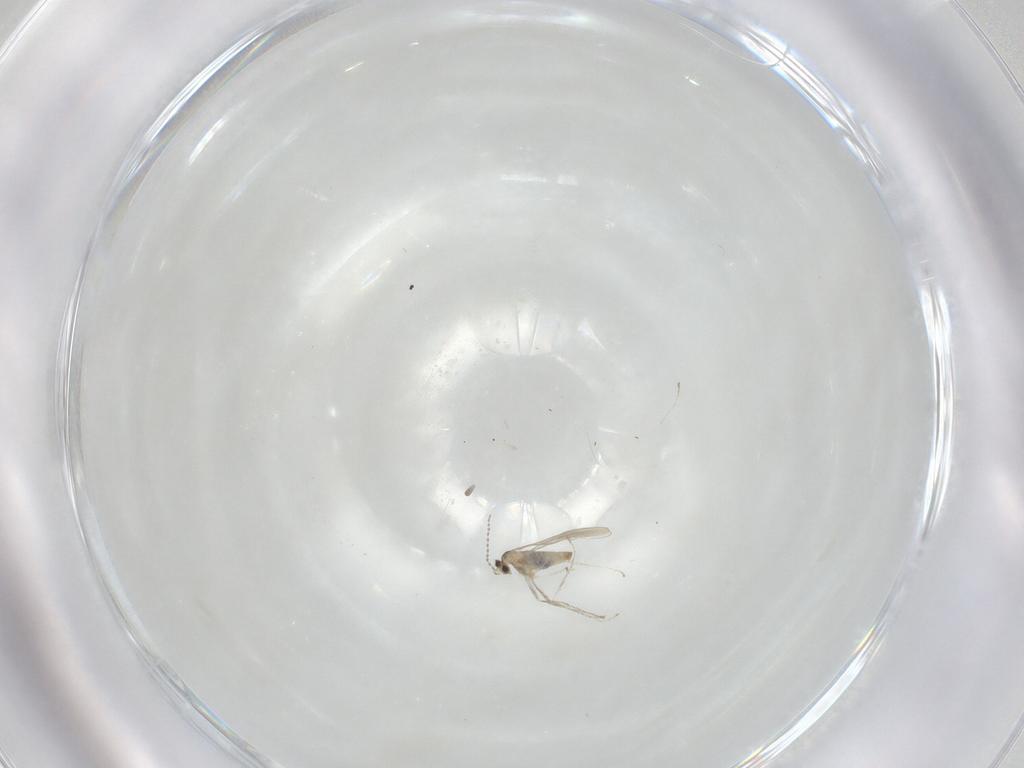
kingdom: Animalia
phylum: Arthropoda
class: Insecta
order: Diptera
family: Cecidomyiidae
